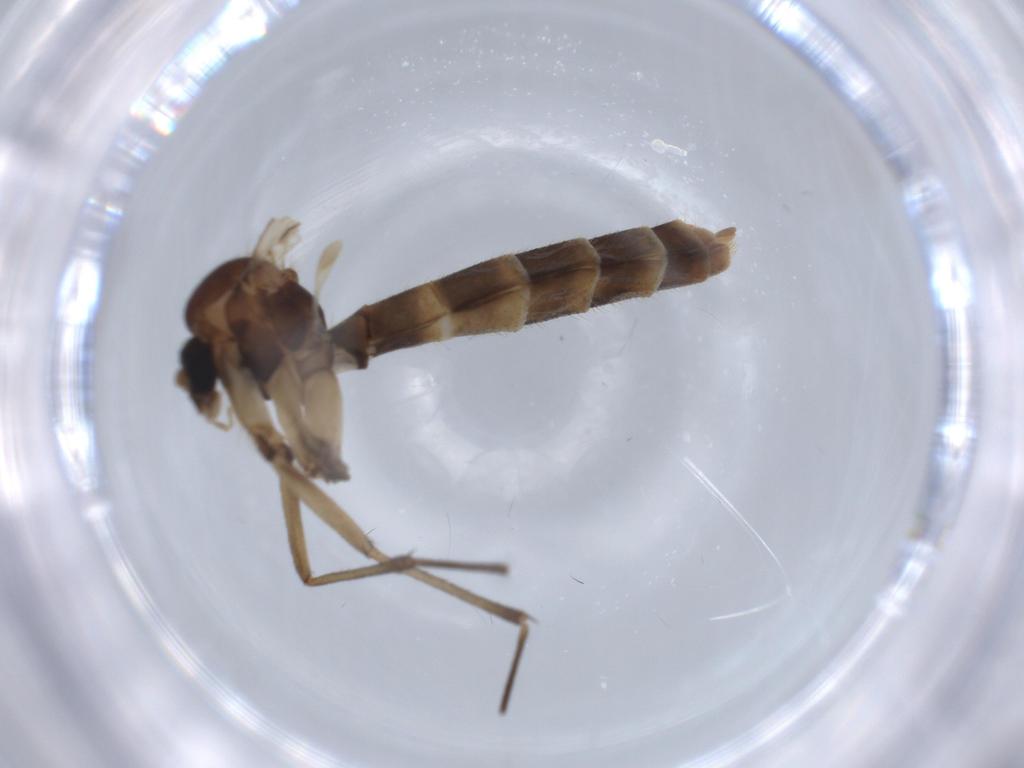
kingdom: Animalia
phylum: Arthropoda
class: Insecta
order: Diptera
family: Mycetophilidae
